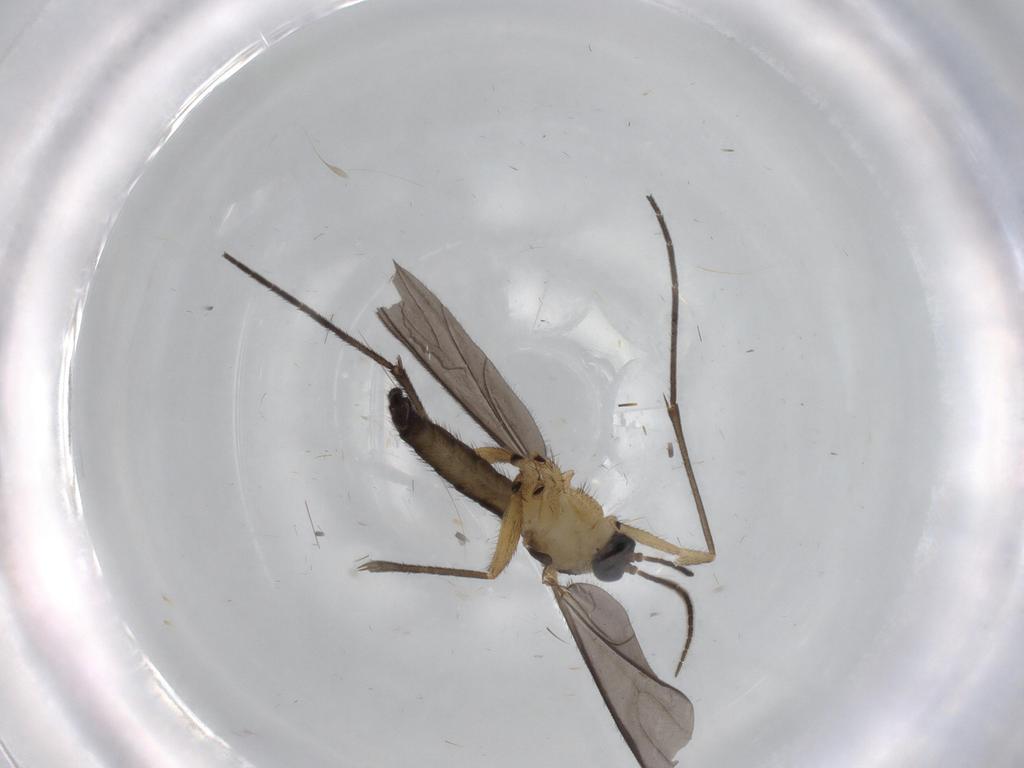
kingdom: Animalia
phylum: Arthropoda
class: Insecta
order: Diptera
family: Sciaridae
